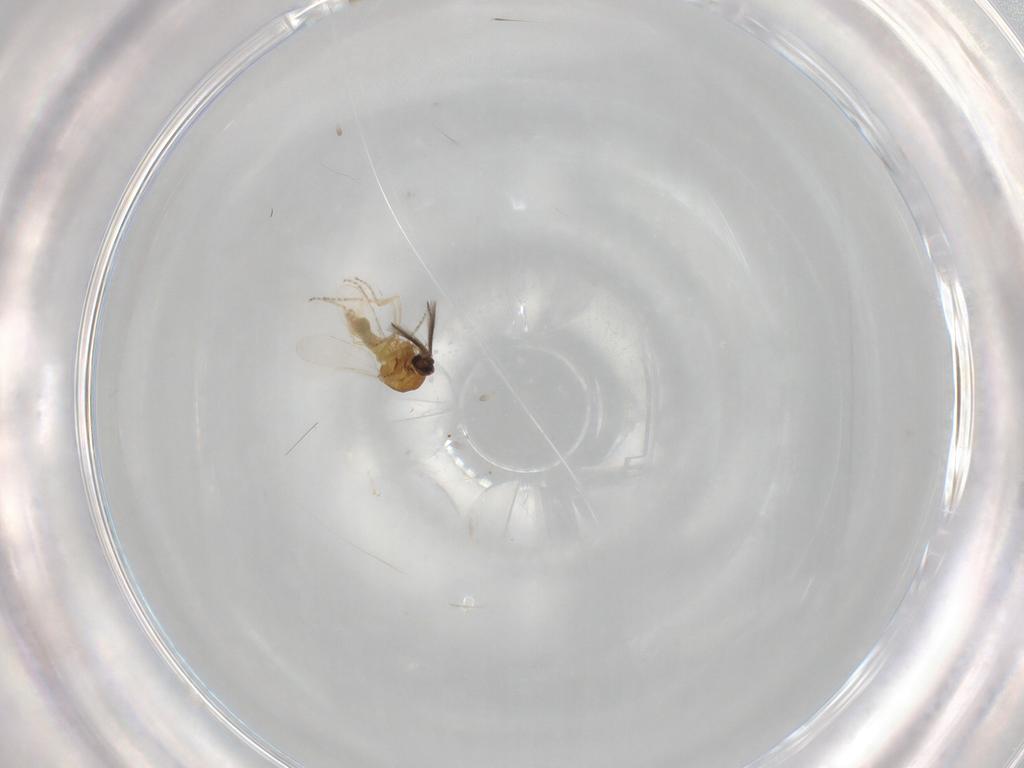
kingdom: Animalia
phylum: Arthropoda
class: Insecta
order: Diptera
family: Ceratopogonidae
